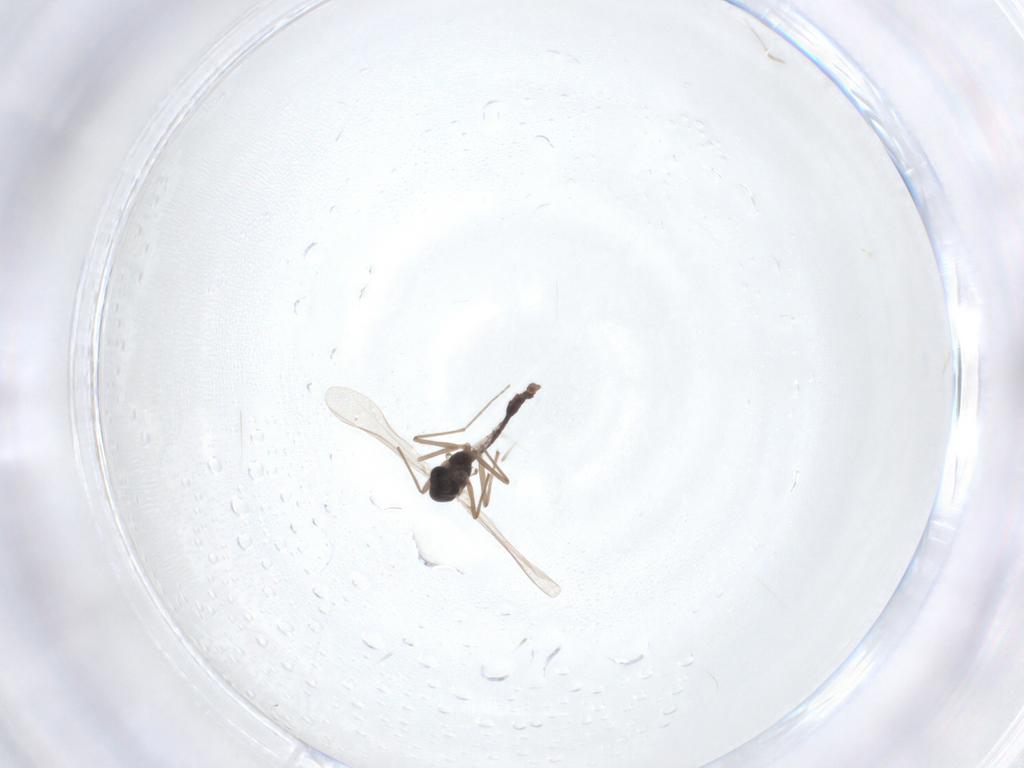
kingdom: Animalia
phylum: Arthropoda
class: Insecta
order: Diptera
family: Chironomidae
